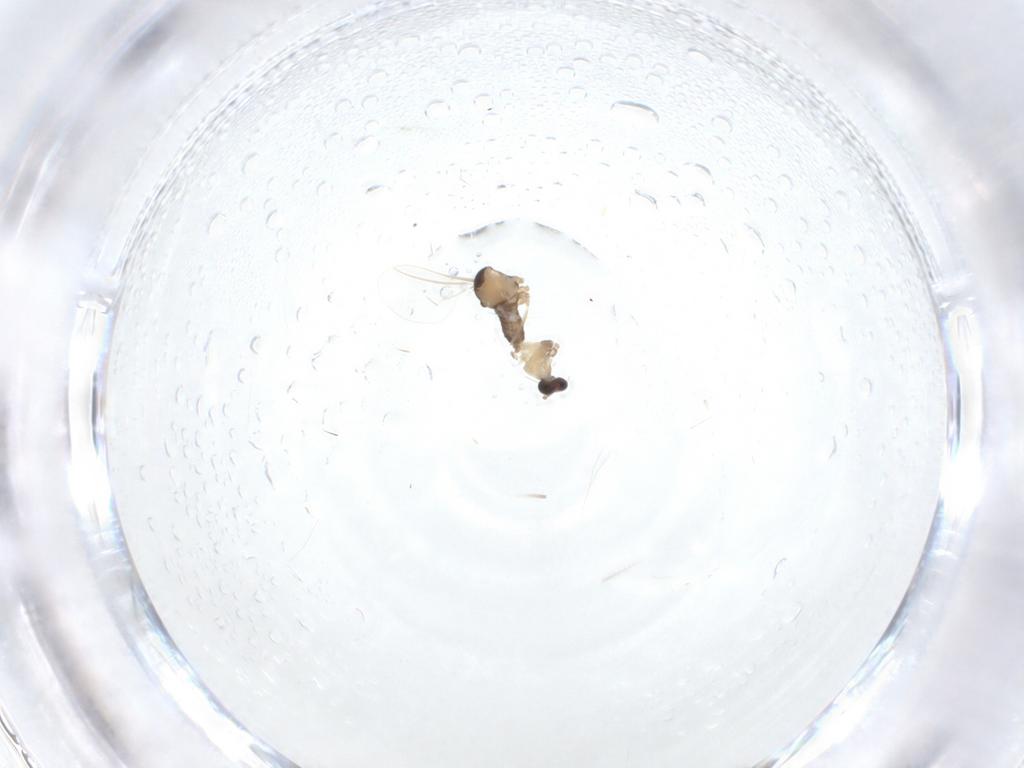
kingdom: Animalia
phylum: Arthropoda
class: Insecta
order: Diptera
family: Cecidomyiidae
